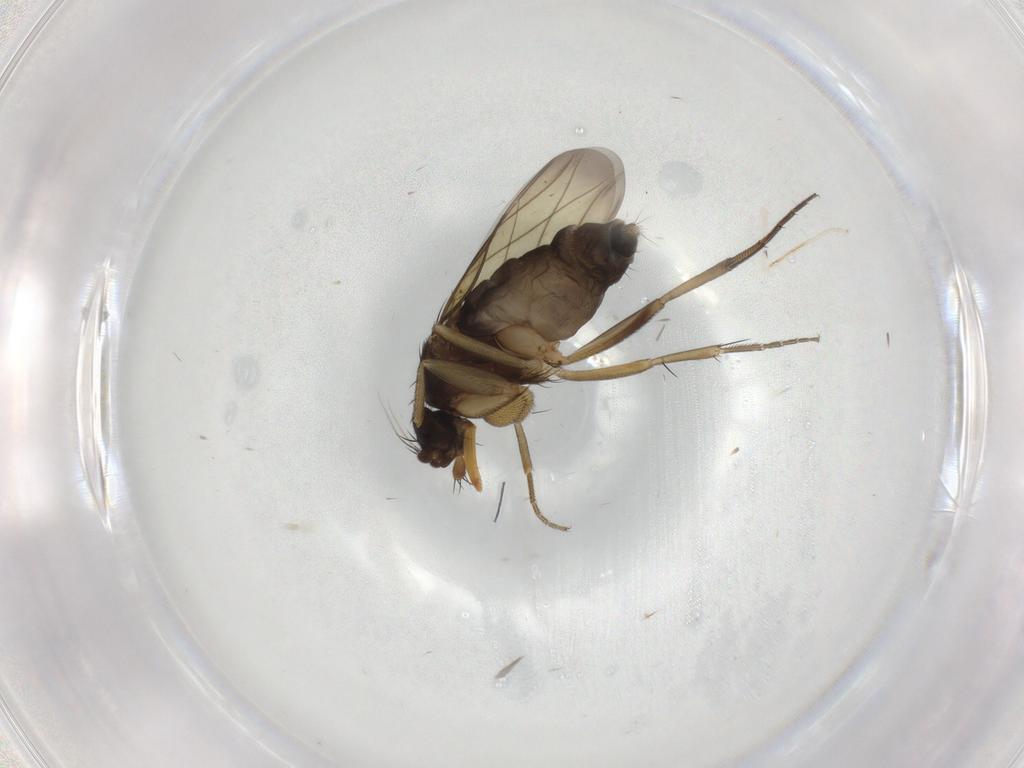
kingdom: Animalia
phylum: Arthropoda
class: Insecta
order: Diptera
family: Phoridae
